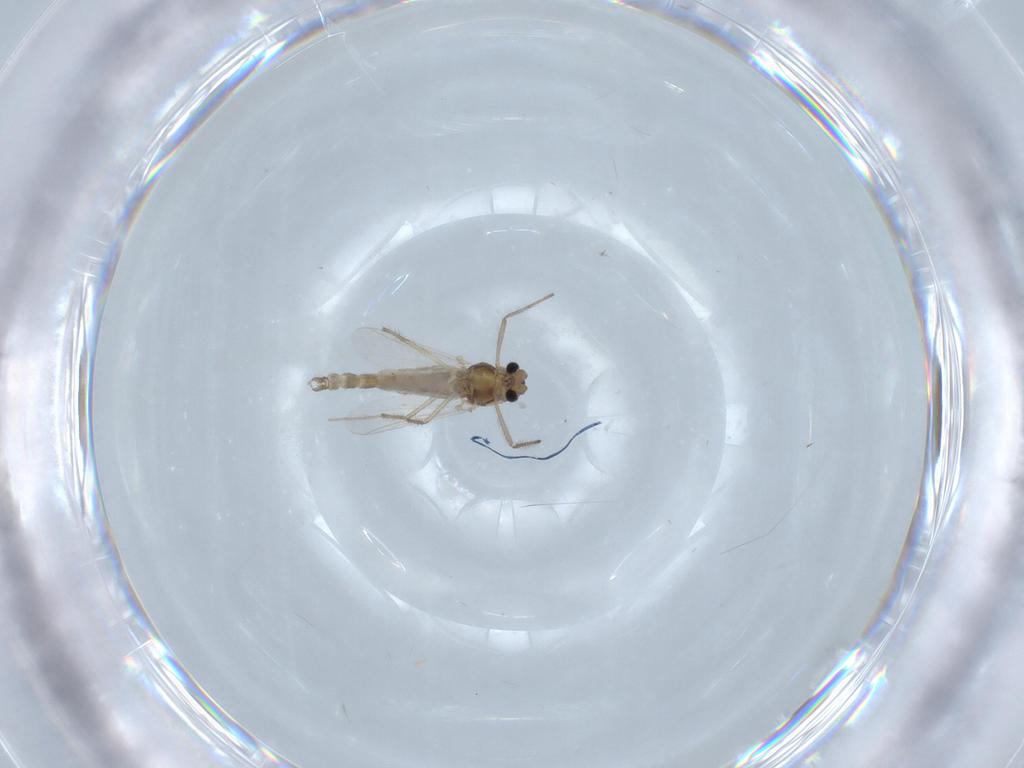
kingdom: Animalia
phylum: Arthropoda
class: Insecta
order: Diptera
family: Chironomidae
